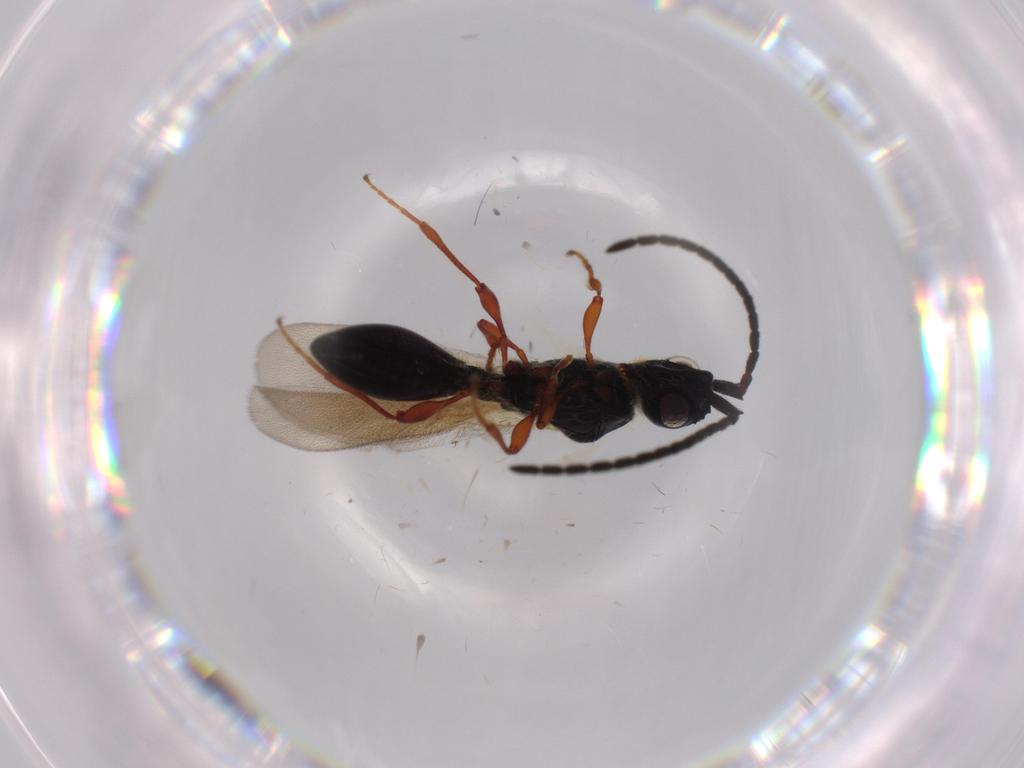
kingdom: Animalia
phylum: Arthropoda
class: Insecta
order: Hymenoptera
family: Diapriidae
